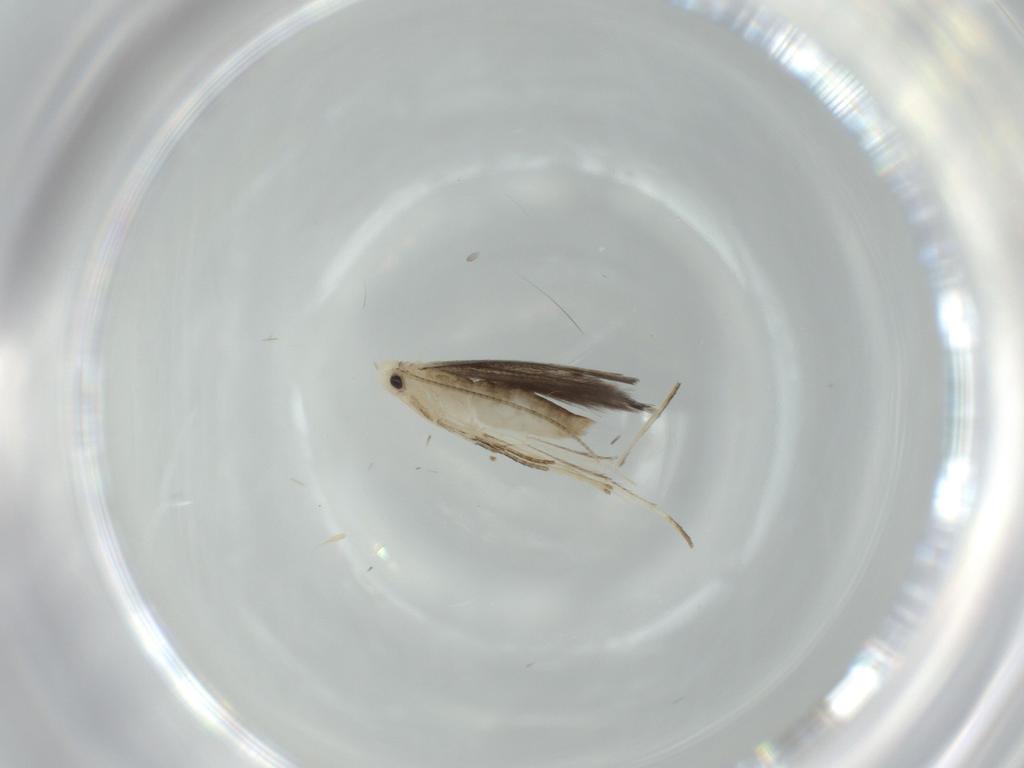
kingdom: Animalia
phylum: Arthropoda
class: Insecta
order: Lepidoptera
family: Gracillariidae
